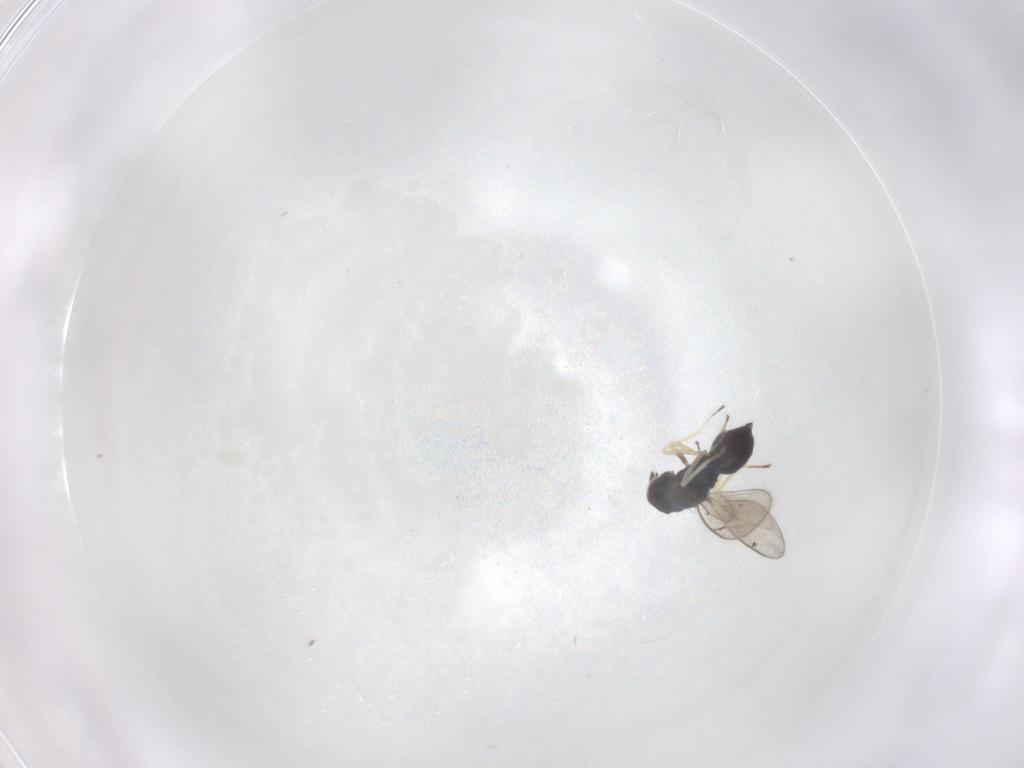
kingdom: Animalia
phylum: Arthropoda
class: Insecta
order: Hymenoptera
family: Eulophidae
